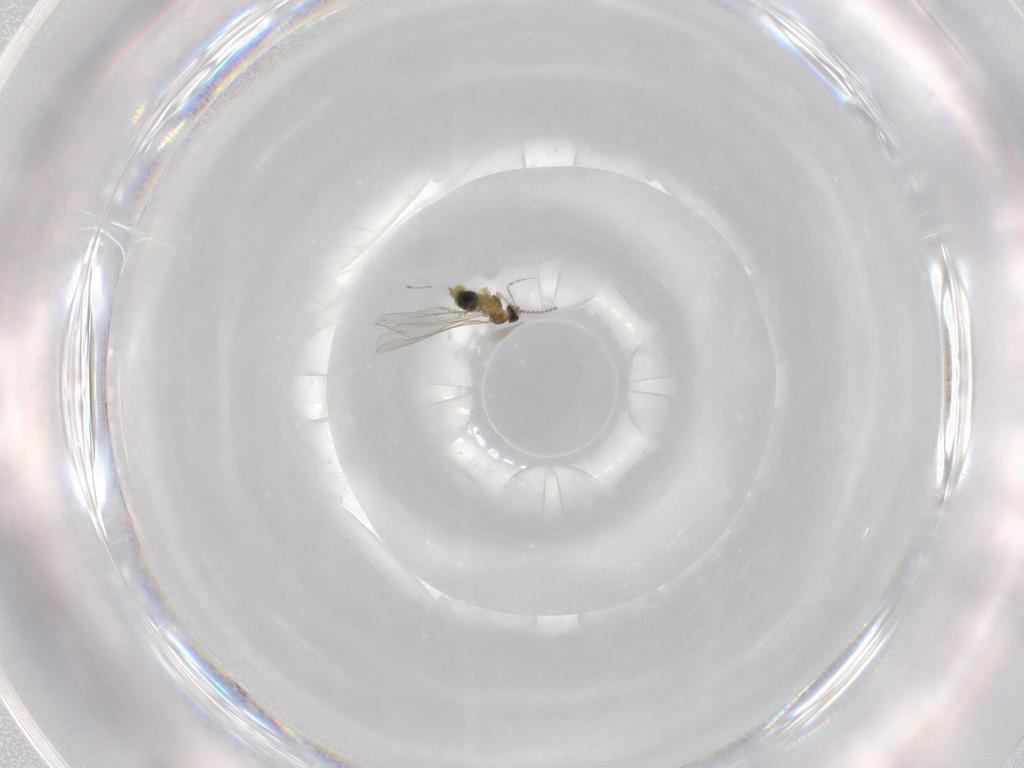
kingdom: Animalia
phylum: Arthropoda
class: Insecta
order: Diptera
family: Cecidomyiidae
